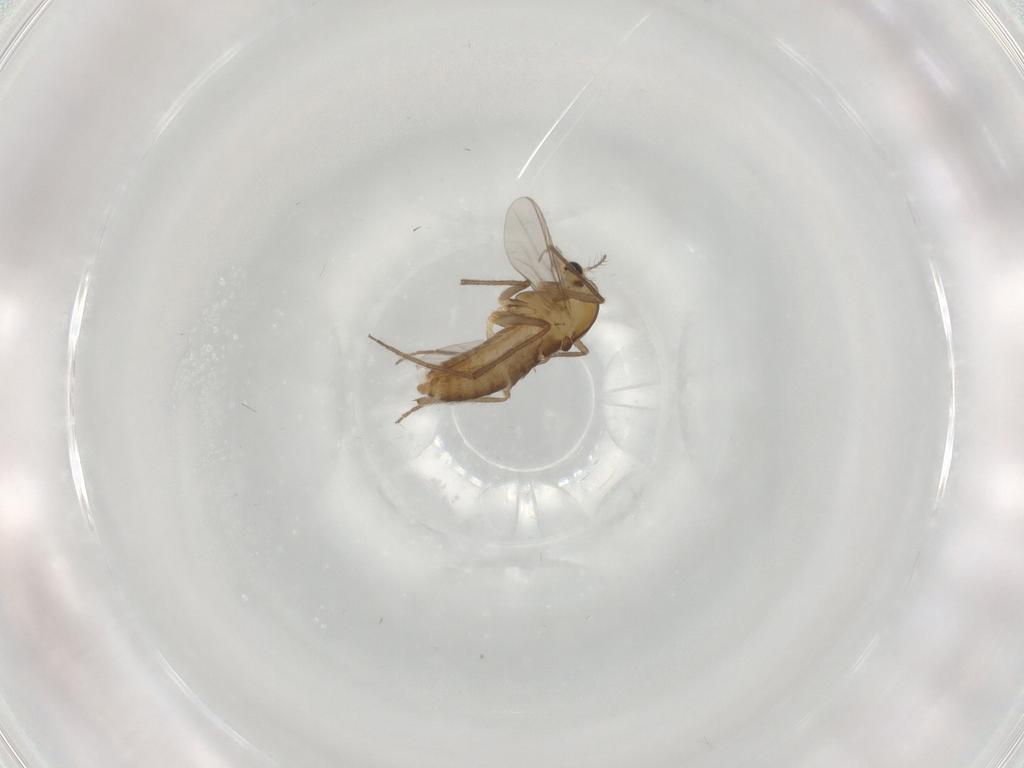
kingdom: Animalia
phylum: Arthropoda
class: Insecta
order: Diptera
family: Chironomidae
